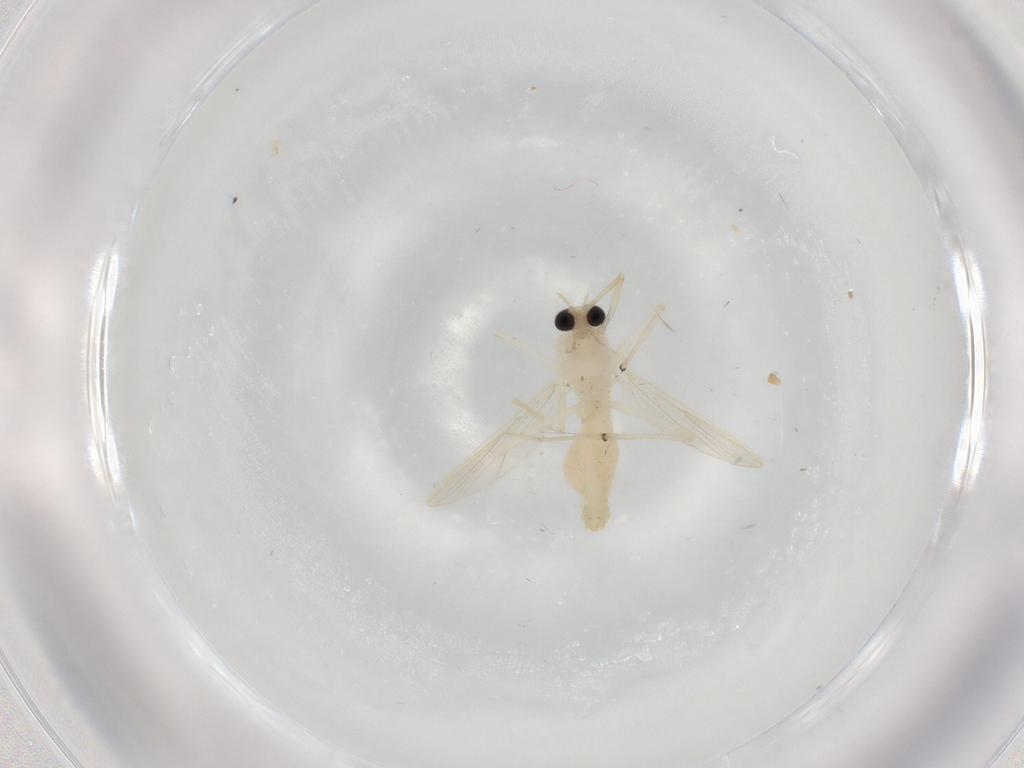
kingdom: Animalia
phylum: Arthropoda
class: Insecta
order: Diptera
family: Chironomidae
